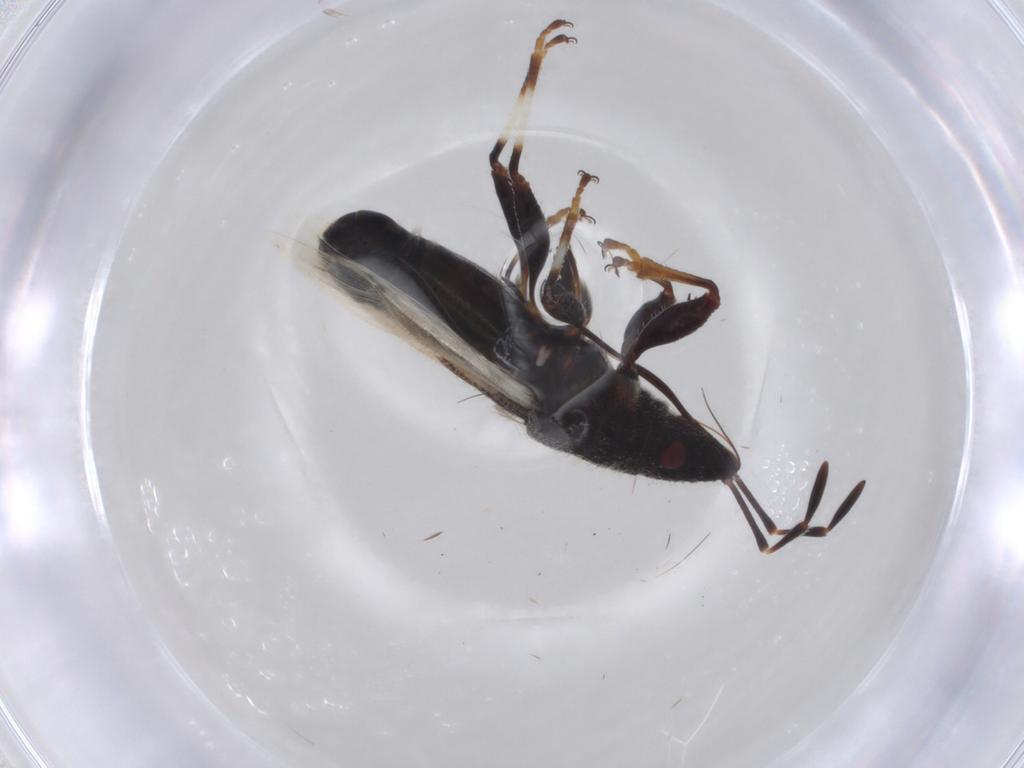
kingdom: Animalia
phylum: Arthropoda
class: Insecta
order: Hemiptera
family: Oxycarenidae
